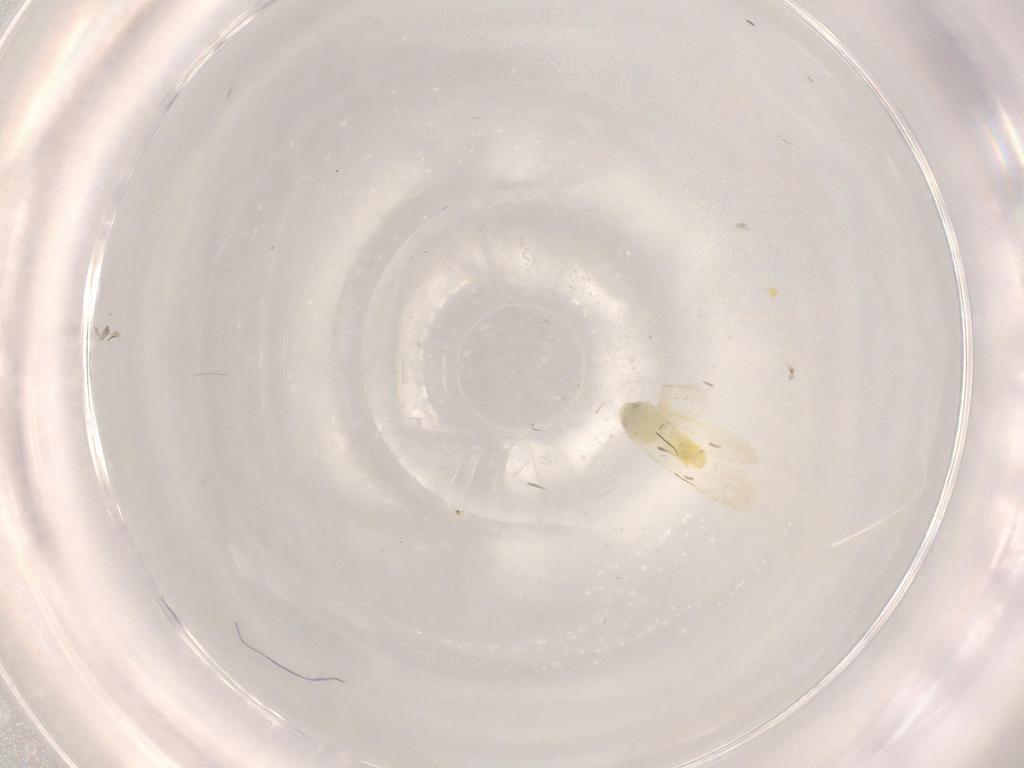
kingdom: Animalia
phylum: Arthropoda
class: Insecta
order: Hemiptera
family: Aleyrodidae
